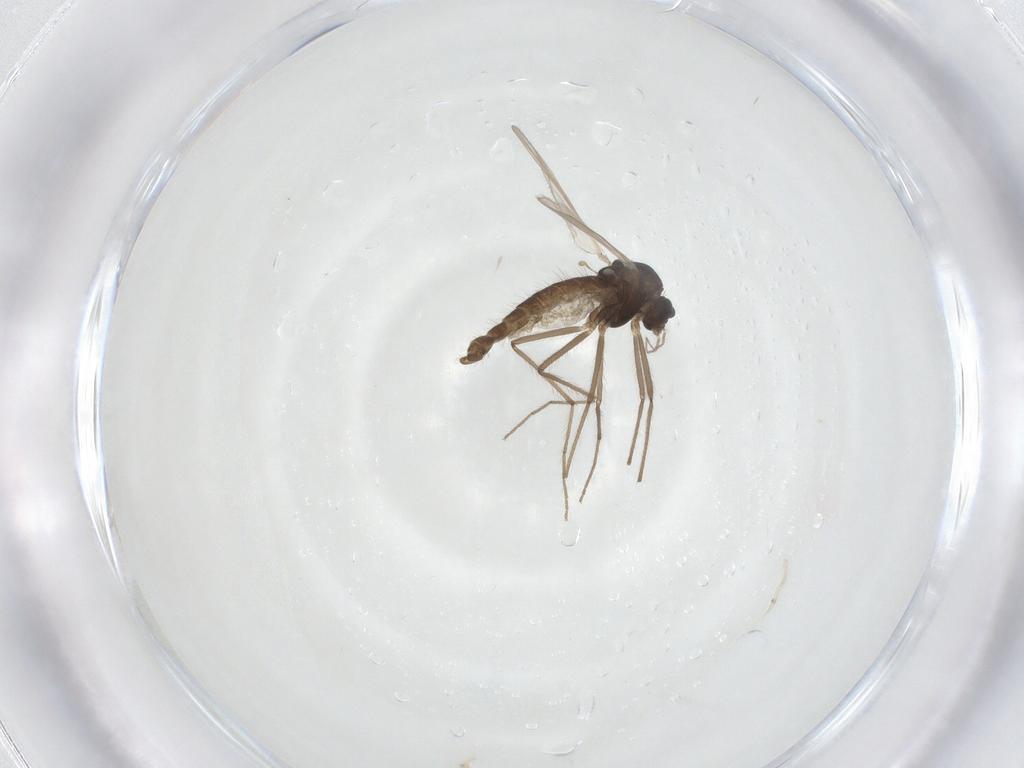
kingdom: Animalia
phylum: Arthropoda
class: Insecta
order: Diptera
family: Chironomidae
